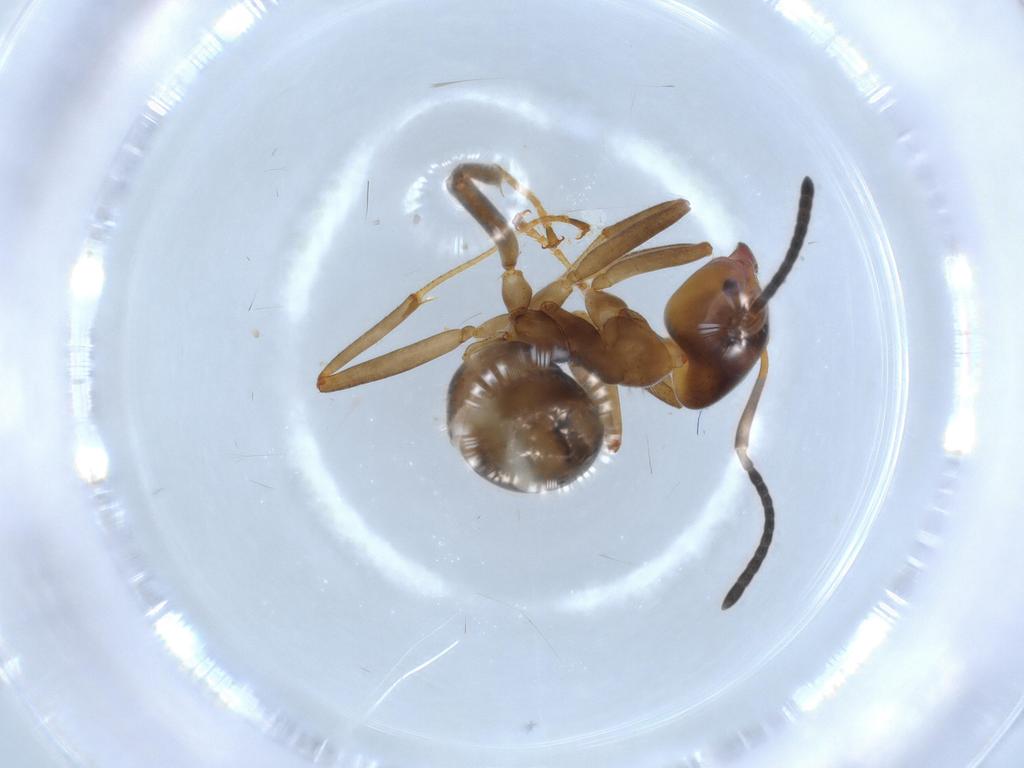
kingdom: Animalia
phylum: Arthropoda
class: Insecta
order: Hymenoptera
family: Formicidae
